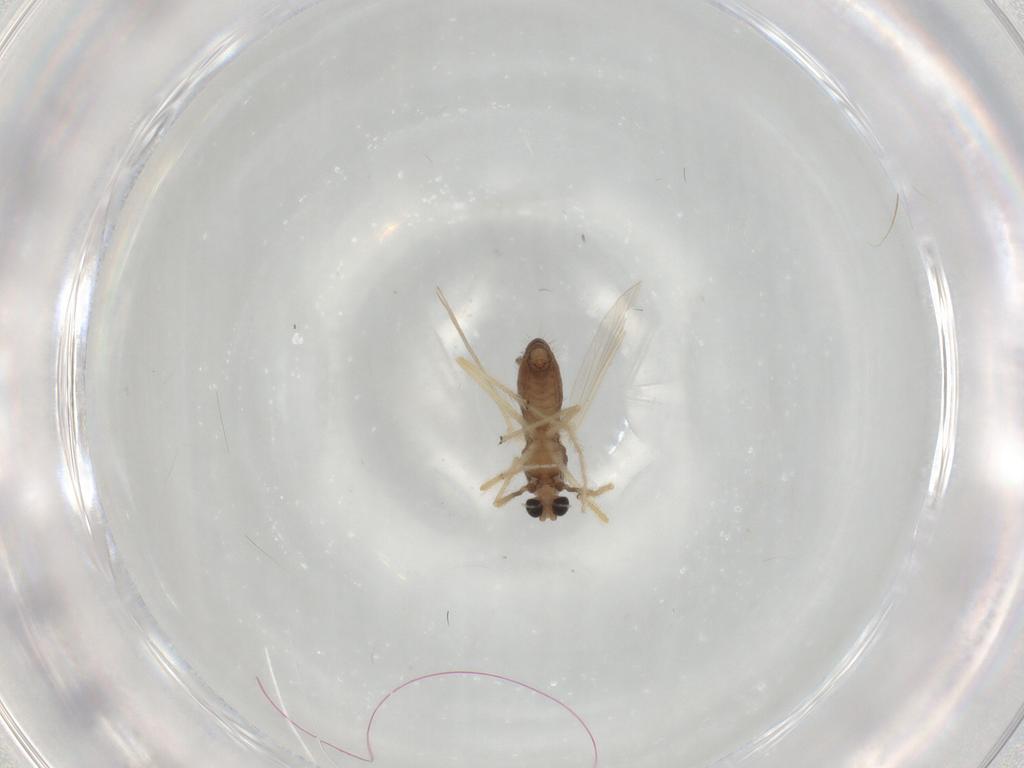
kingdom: Animalia
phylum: Arthropoda
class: Insecta
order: Diptera
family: Chironomidae
